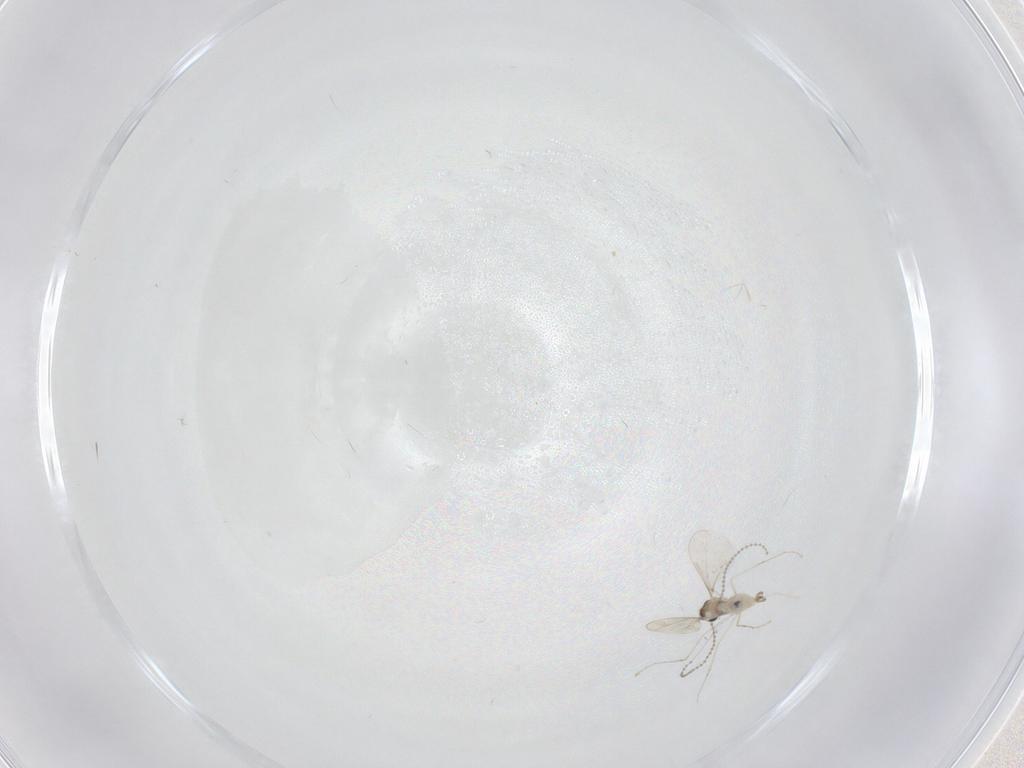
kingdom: Animalia
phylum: Arthropoda
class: Insecta
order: Diptera
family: Cecidomyiidae
